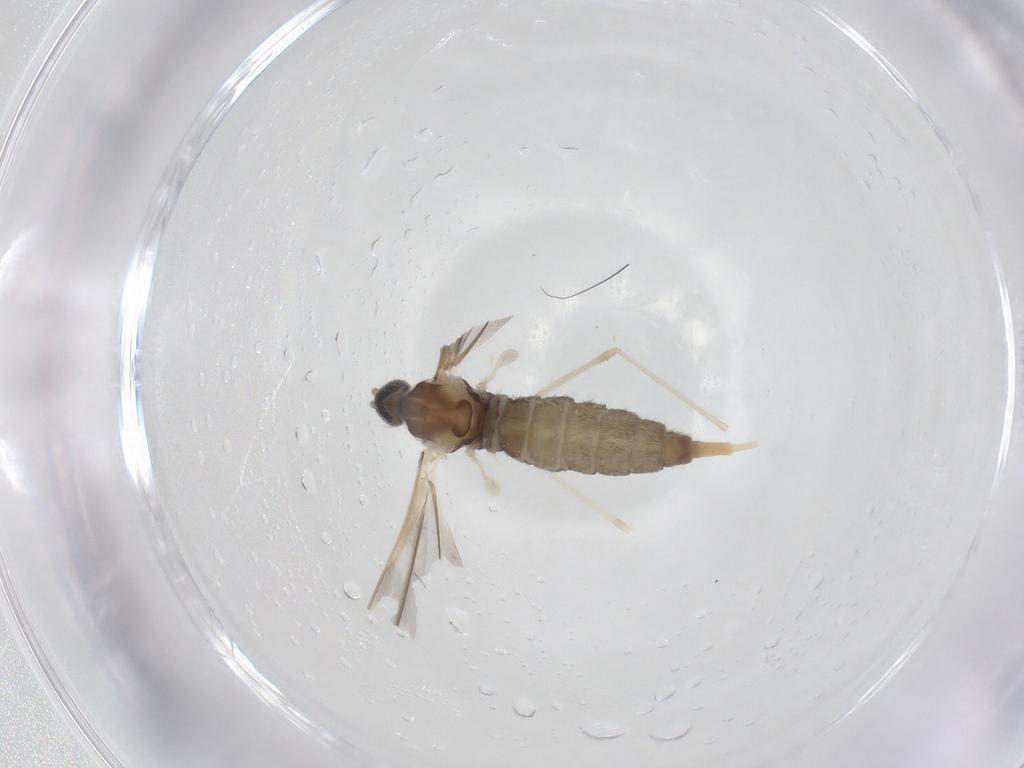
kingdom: Animalia
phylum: Arthropoda
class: Insecta
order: Diptera
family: Cecidomyiidae
